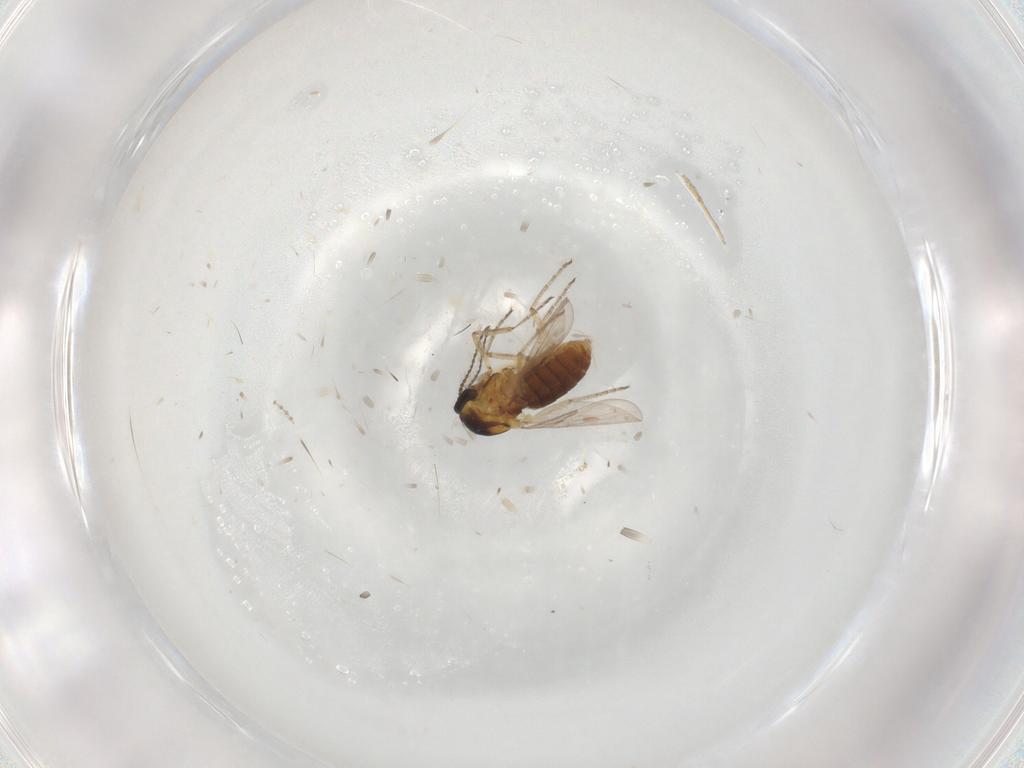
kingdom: Animalia
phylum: Arthropoda
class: Insecta
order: Diptera
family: Ceratopogonidae
